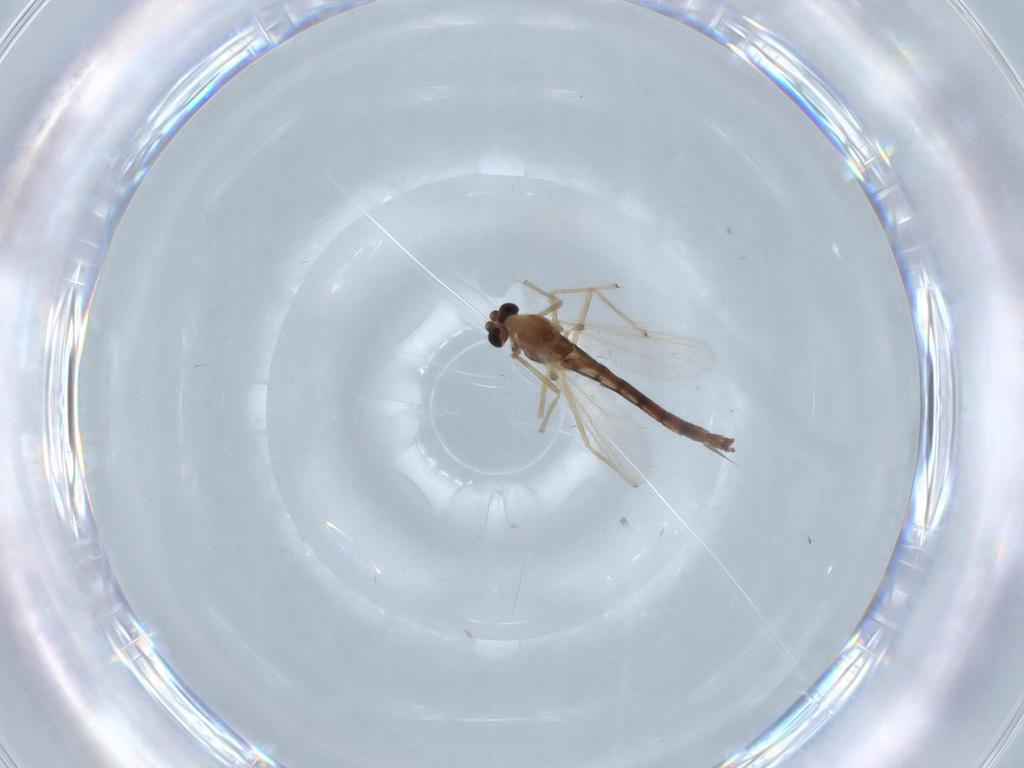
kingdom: Animalia
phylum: Arthropoda
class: Insecta
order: Diptera
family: Chironomidae
